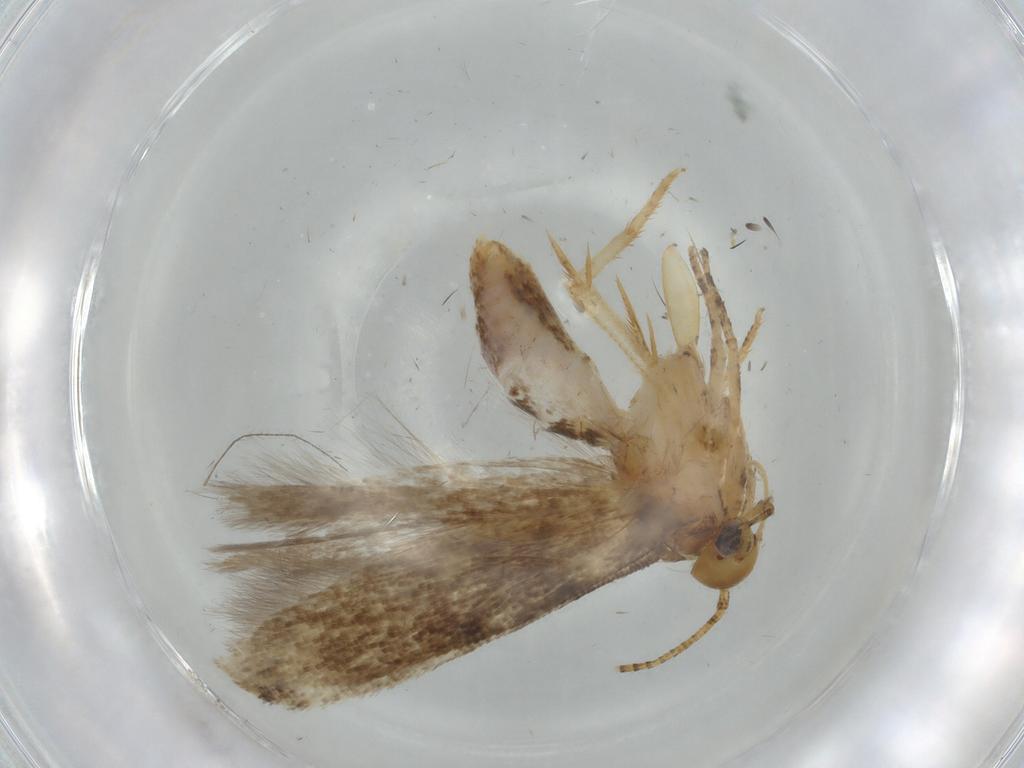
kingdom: Animalia
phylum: Arthropoda
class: Insecta
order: Lepidoptera
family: Gelechiidae
